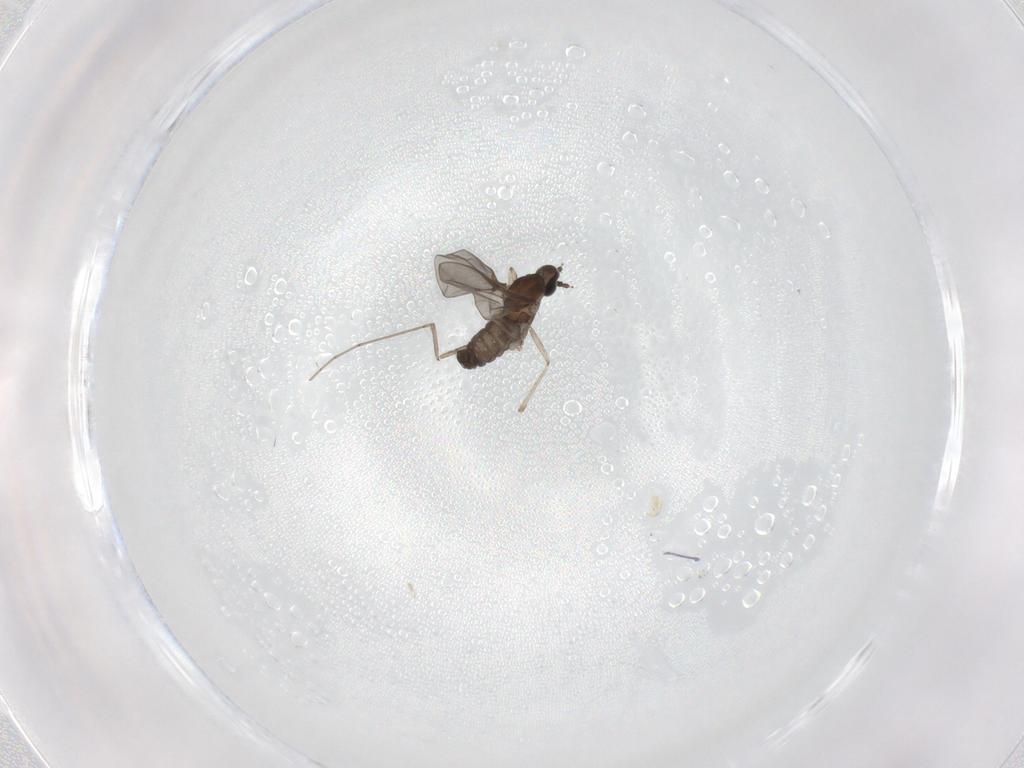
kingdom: Animalia
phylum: Arthropoda
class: Insecta
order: Diptera
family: Cecidomyiidae
